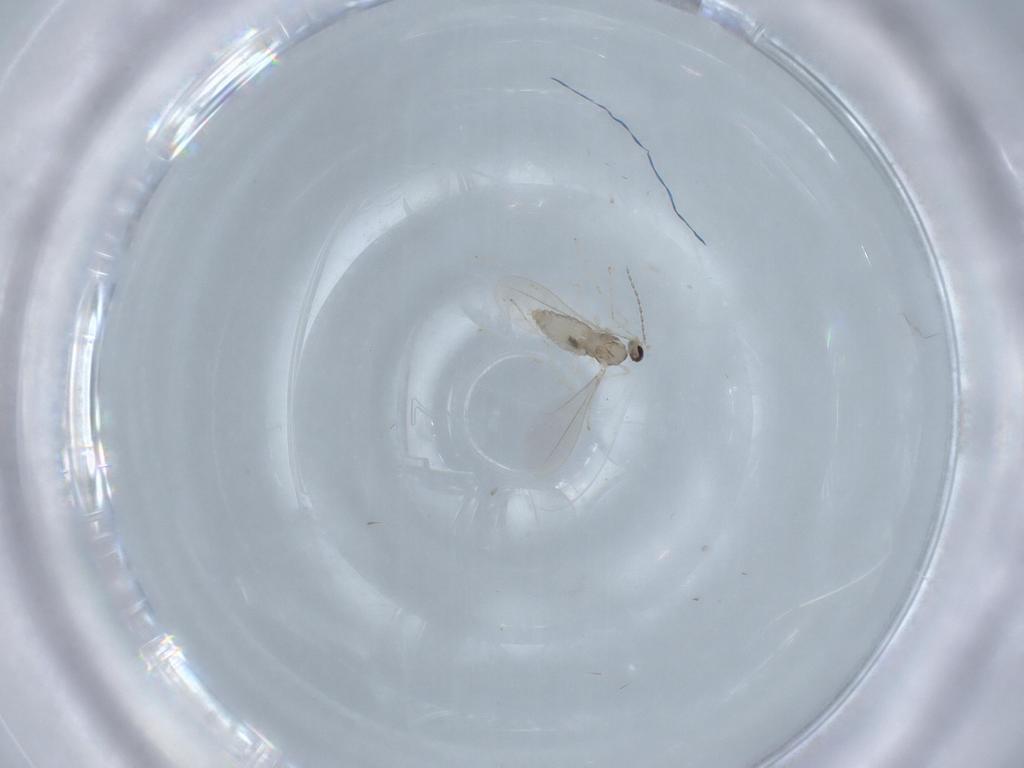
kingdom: Animalia
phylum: Arthropoda
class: Insecta
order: Diptera
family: Cecidomyiidae
